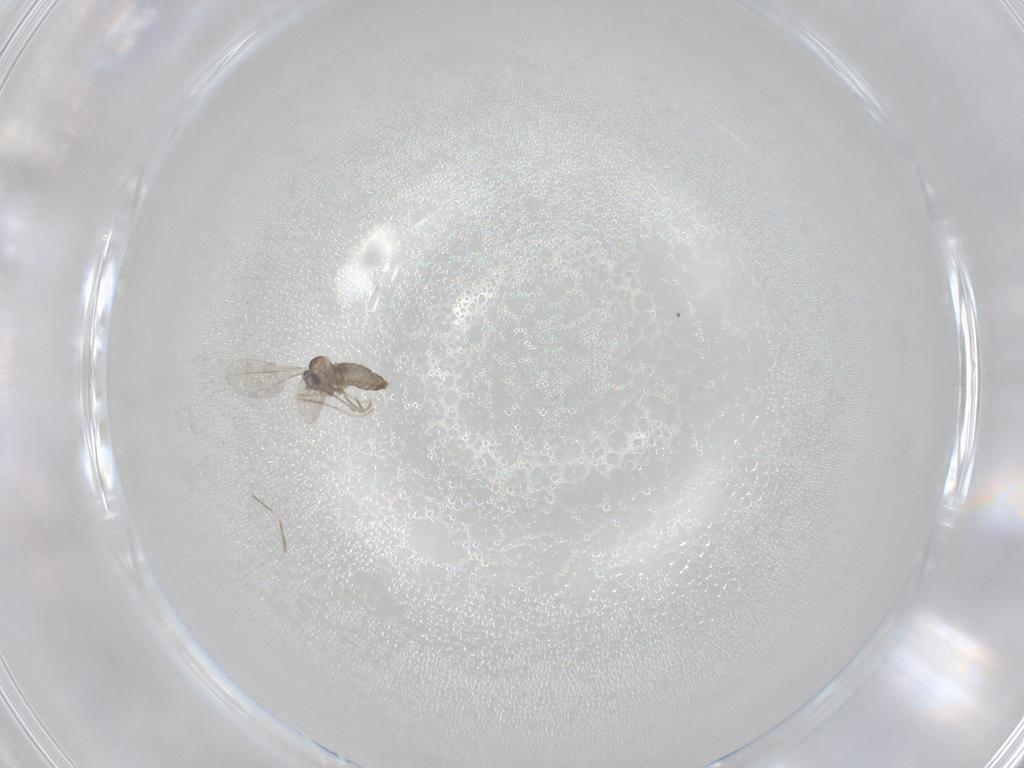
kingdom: Animalia
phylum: Arthropoda
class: Insecta
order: Diptera
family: Cecidomyiidae
